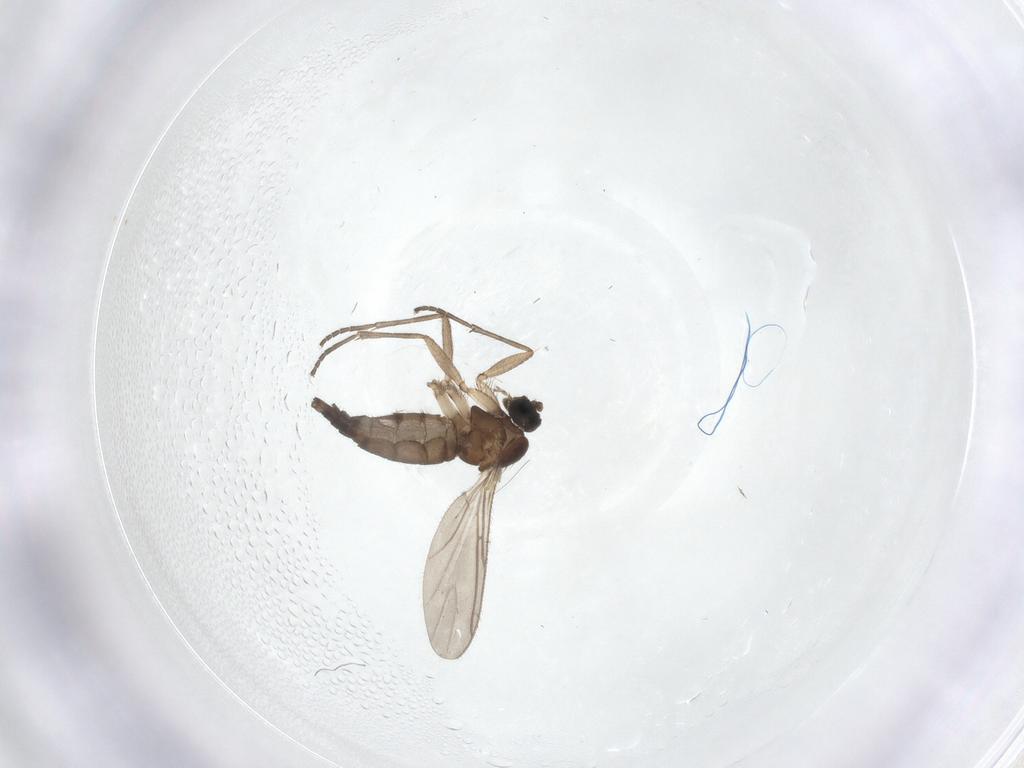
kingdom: Animalia
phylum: Arthropoda
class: Insecta
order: Diptera
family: Sciaridae
